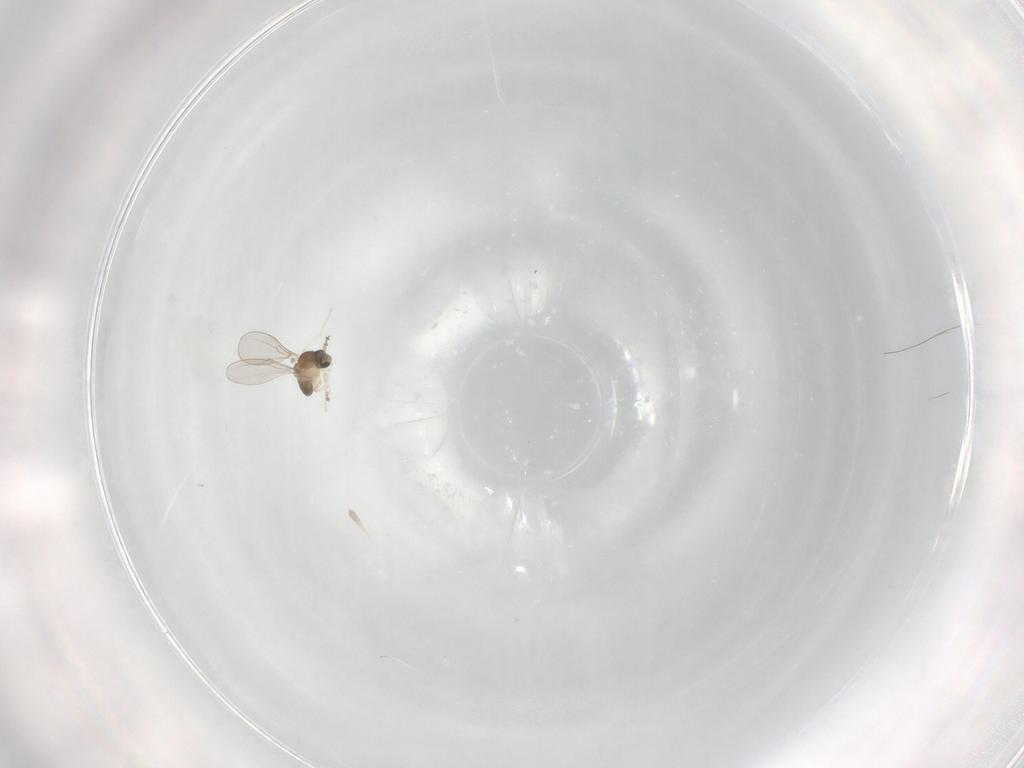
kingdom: Animalia
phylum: Arthropoda
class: Insecta
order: Diptera
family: Cecidomyiidae
